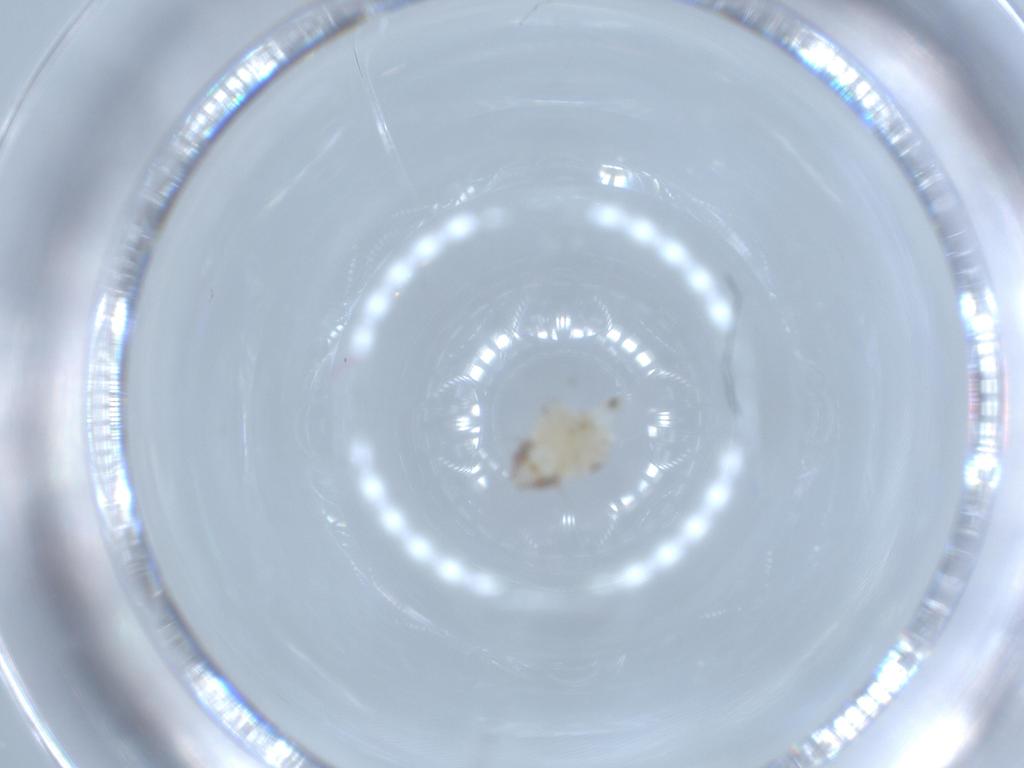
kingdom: Animalia
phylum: Arthropoda
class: Insecta
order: Hemiptera
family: Nogodinidae
